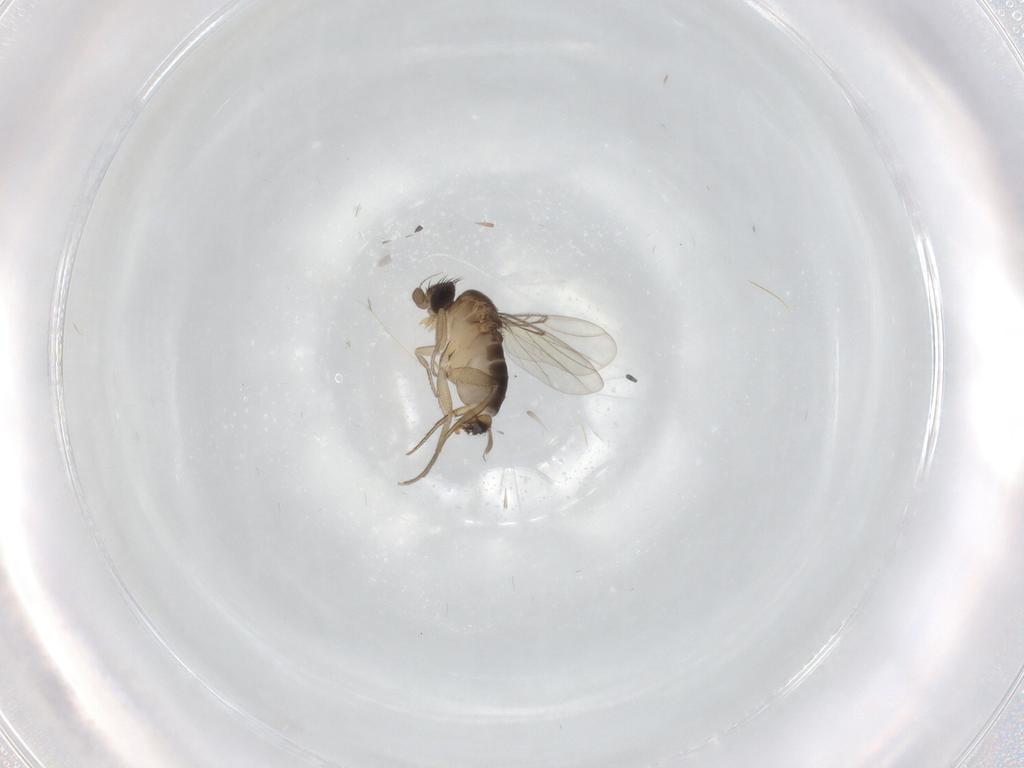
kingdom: Animalia
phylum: Arthropoda
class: Insecta
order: Diptera
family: Phoridae
